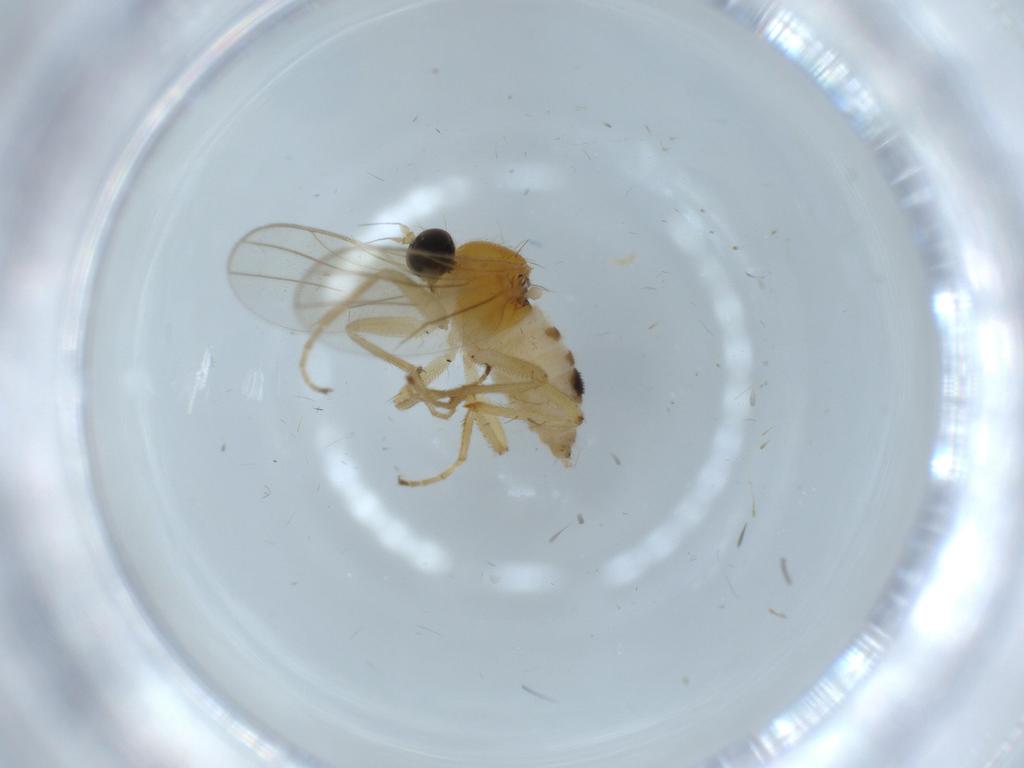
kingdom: Animalia
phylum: Arthropoda
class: Insecta
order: Diptera
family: Hybotidae
